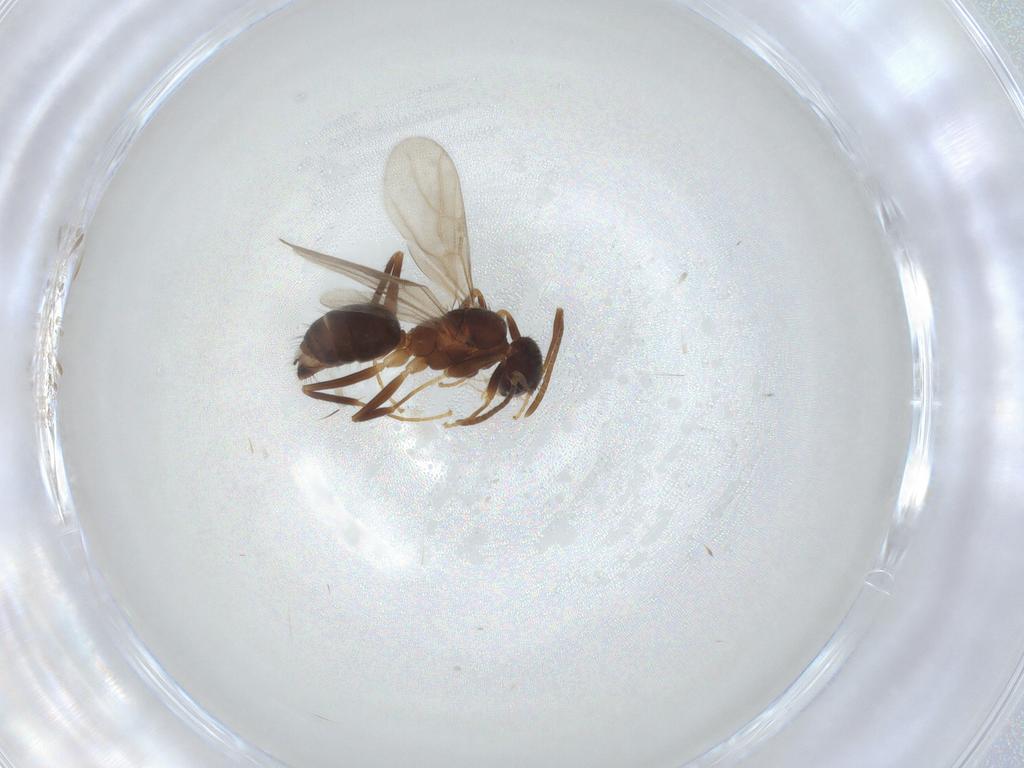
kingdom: Animalia
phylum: Arthropoda
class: Insecta
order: Hymenoptera
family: Formicidae
